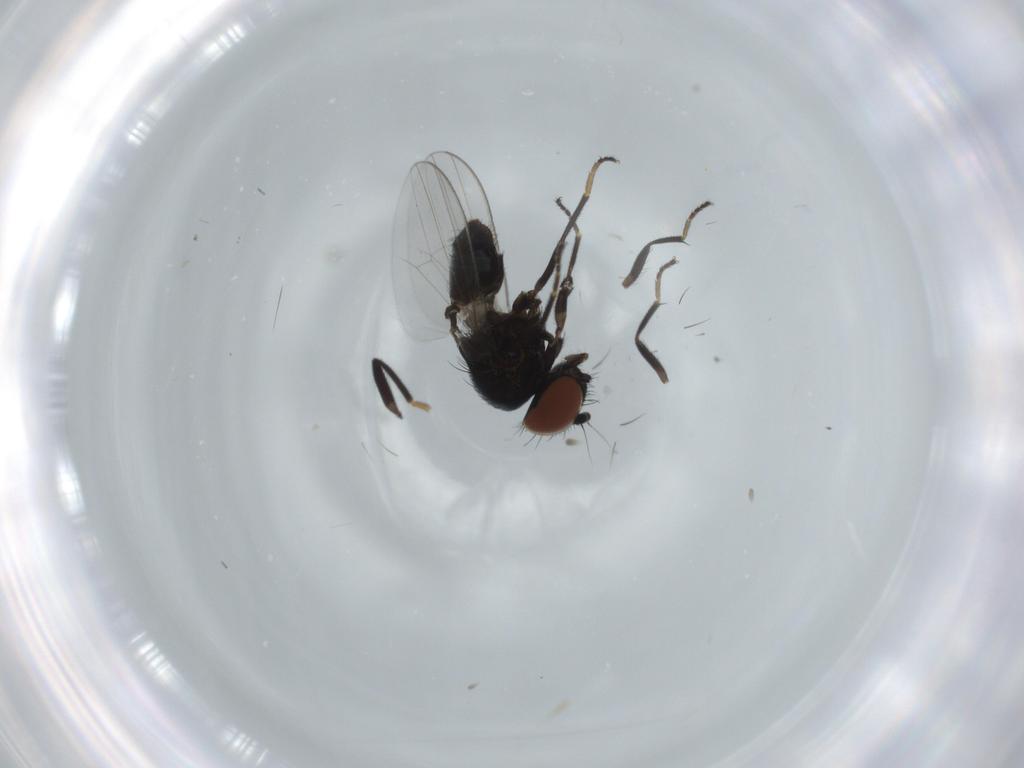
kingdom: Animalia
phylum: Arthropoda
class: Insecta
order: Diptera
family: Milichiidae
